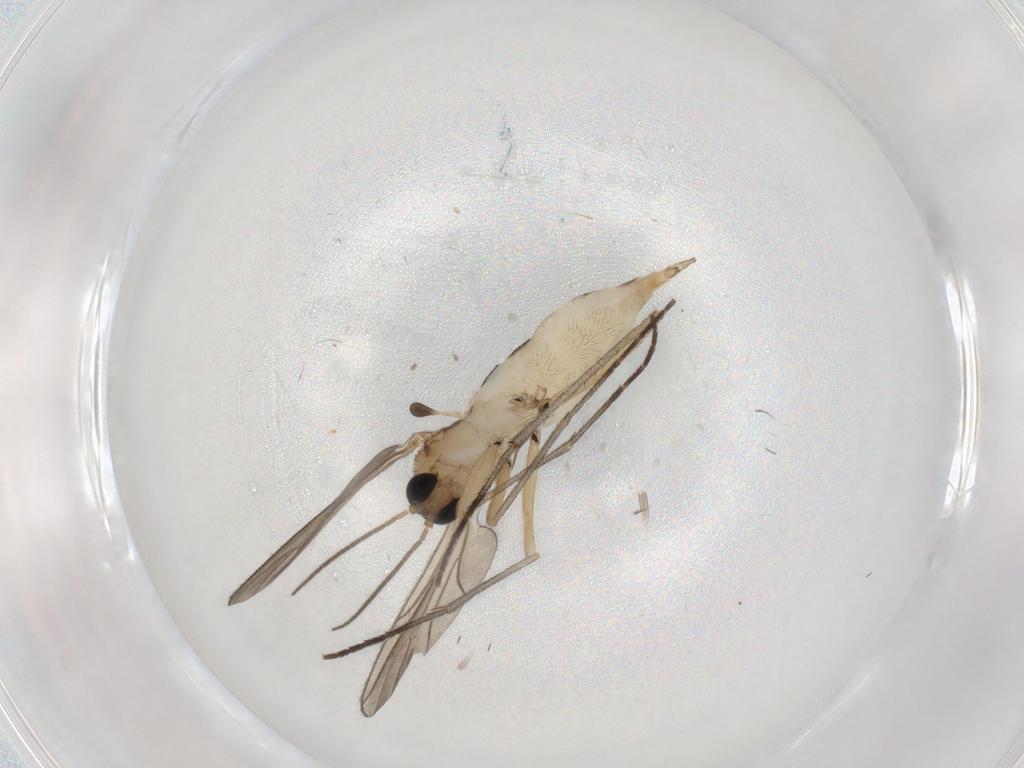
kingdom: Animalia
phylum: Arthropoda
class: Insecta
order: Diptera
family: Cecidomyiidae
